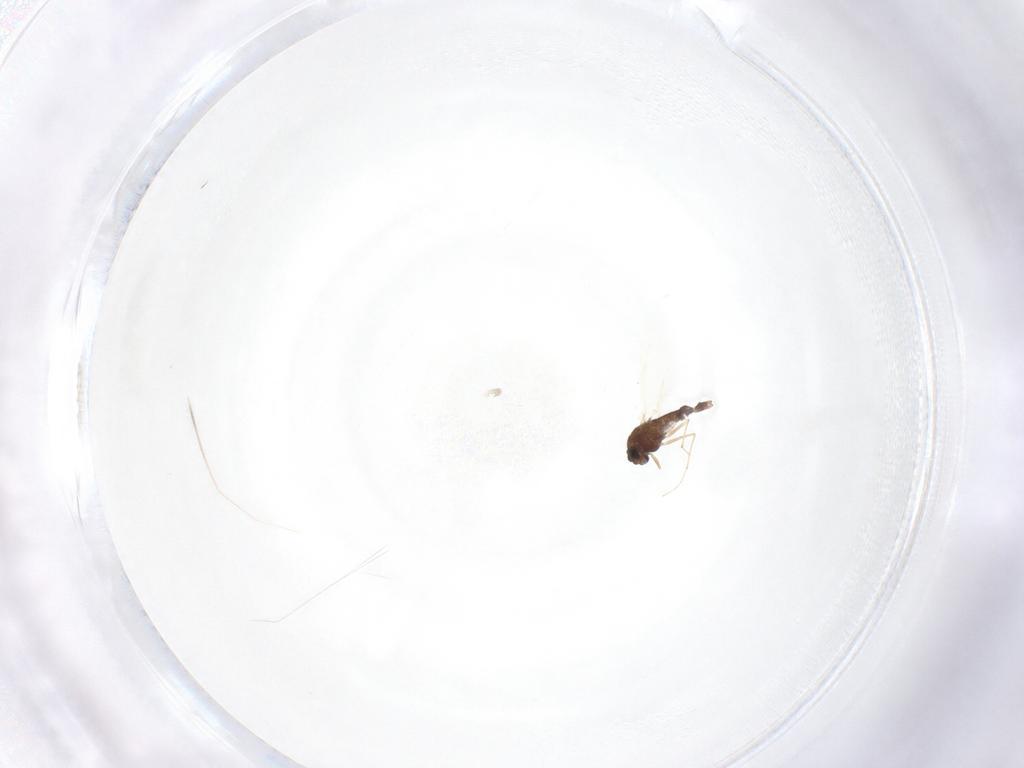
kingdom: Animalia
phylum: Arthropoda
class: Insecta
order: Diptera
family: Chironomidae
